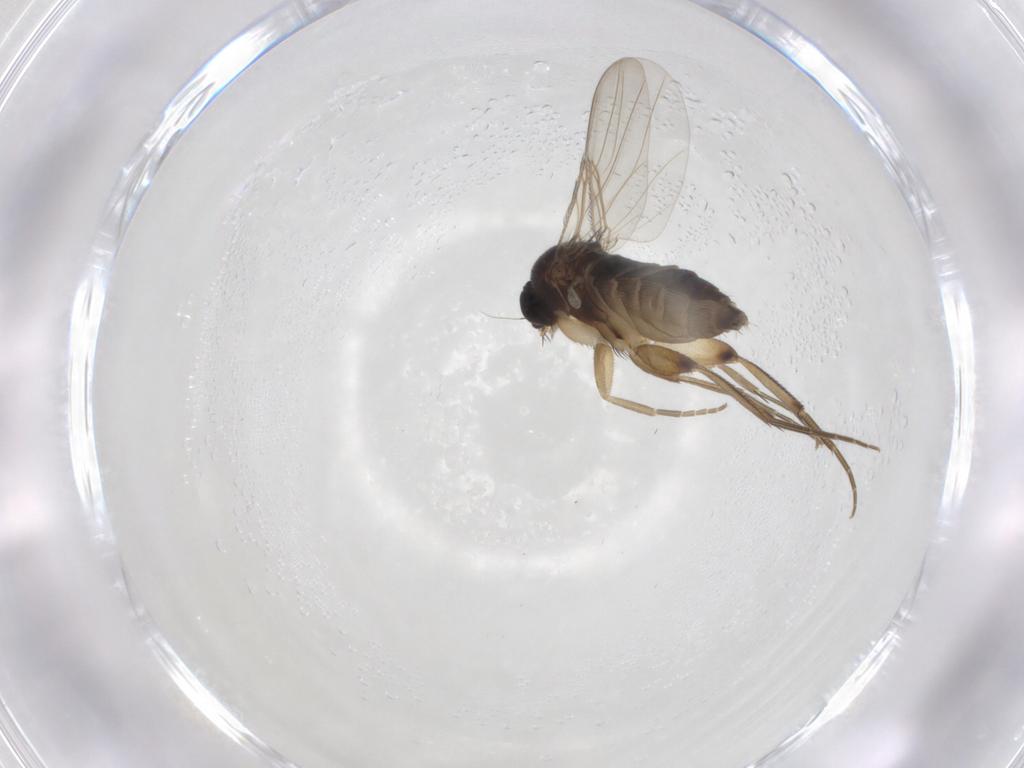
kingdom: Animalia
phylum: Arthropoda
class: Insecta
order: Diptera
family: Phoridae
